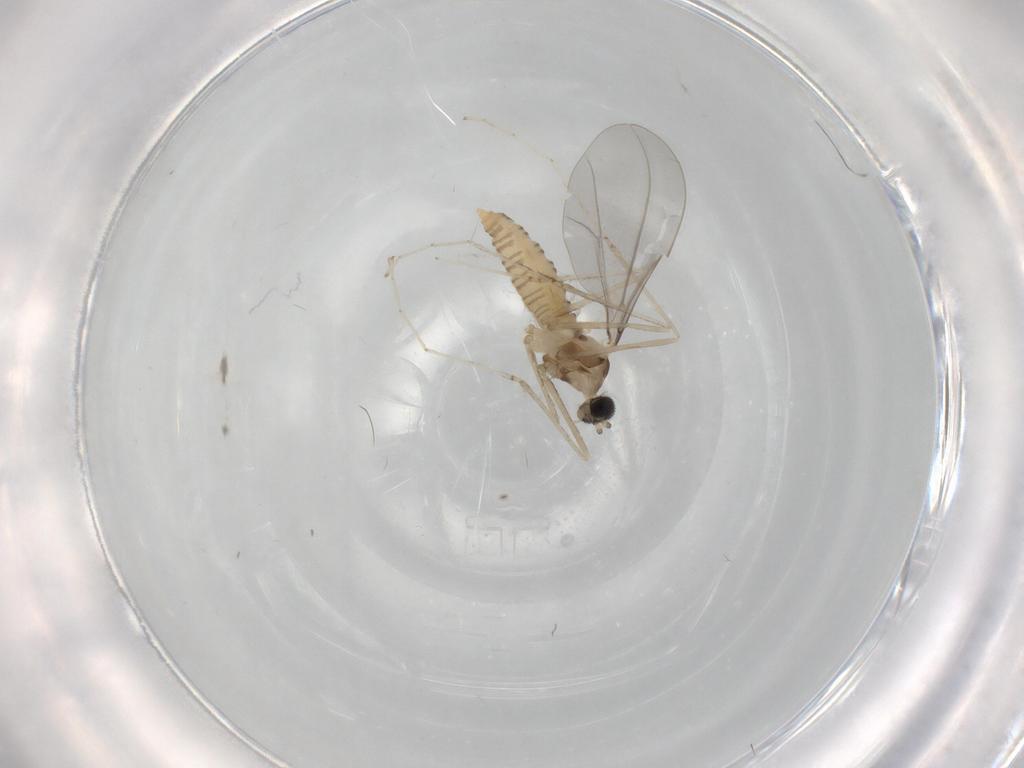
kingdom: Animalia
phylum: Arthropoda
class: Insecta
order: Diptera
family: Cecidomyiidae
